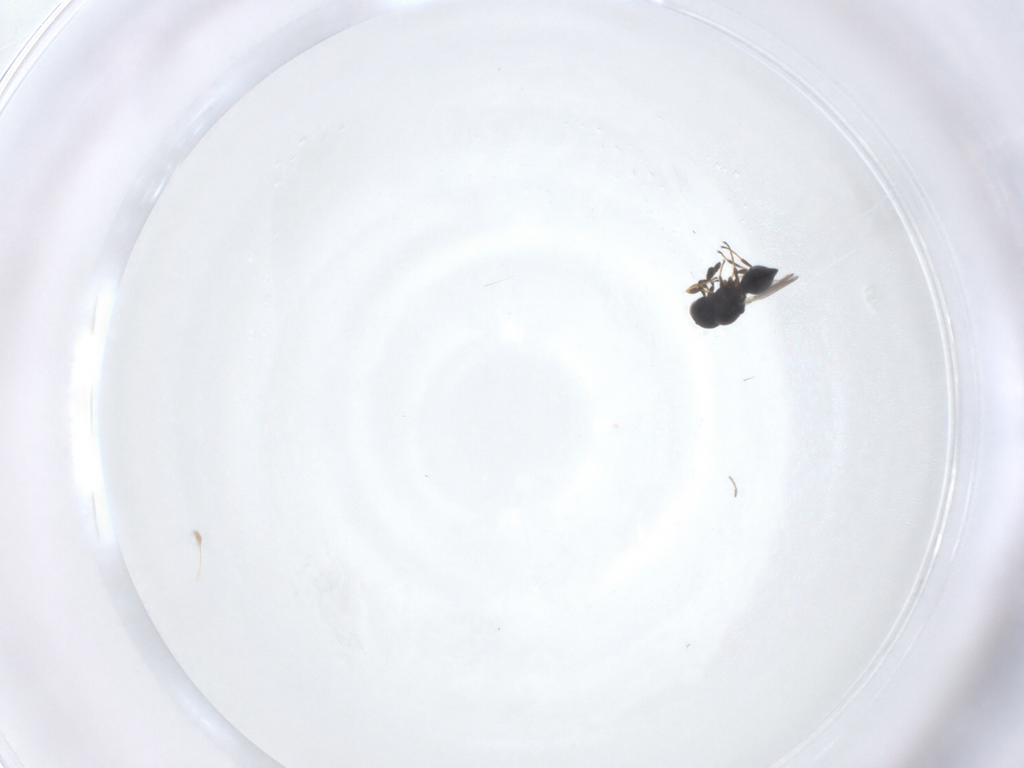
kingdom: Animalia
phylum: Arthropoda
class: Insecta
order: Hymenoptera
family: Platygastridae
